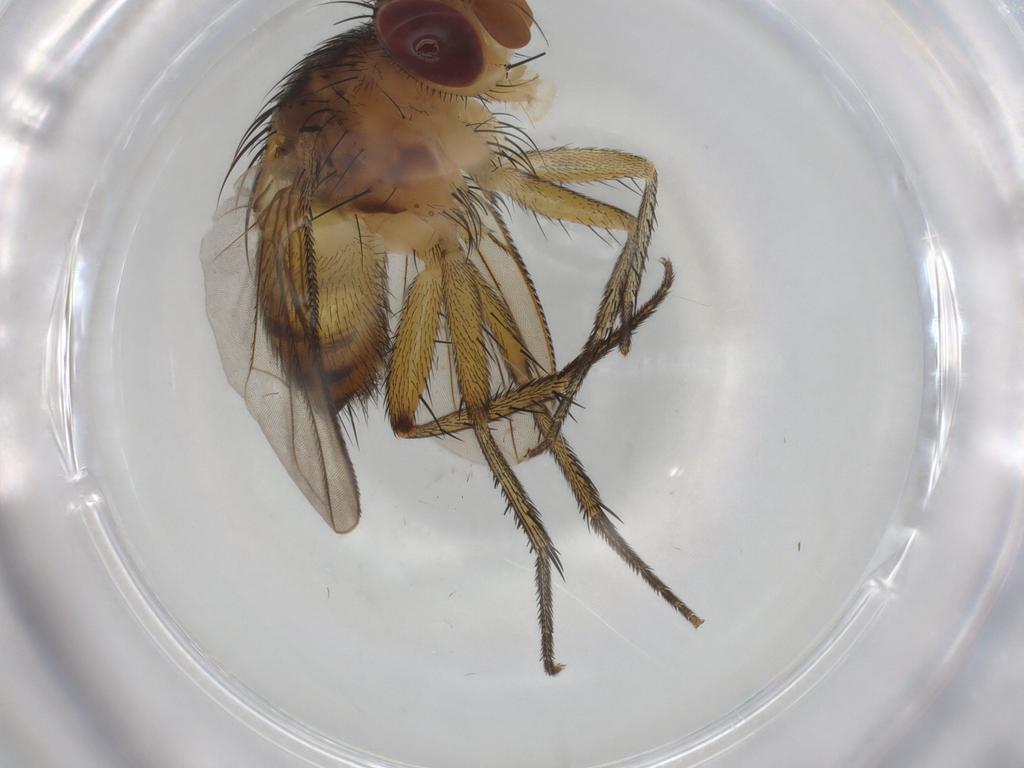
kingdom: Animalia
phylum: Arthropoda
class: Insecta
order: Diptera
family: Tachinidae
